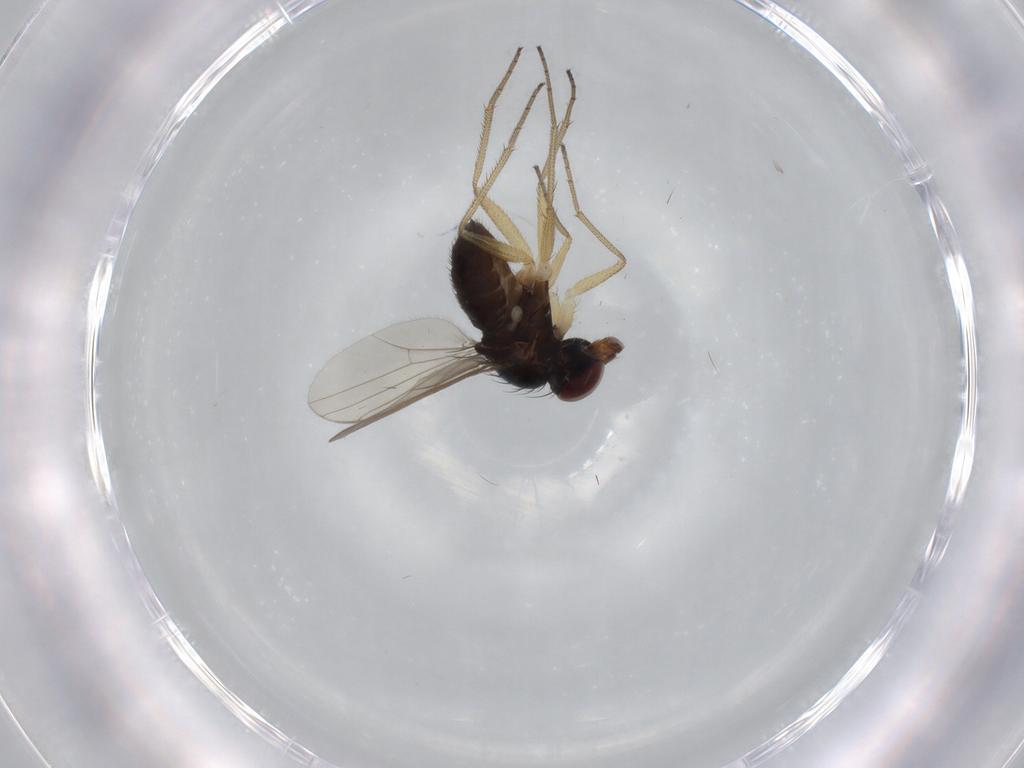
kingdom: Animalia
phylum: Arthropoda
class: Insecta
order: Diptera
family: Dolichopodidae
